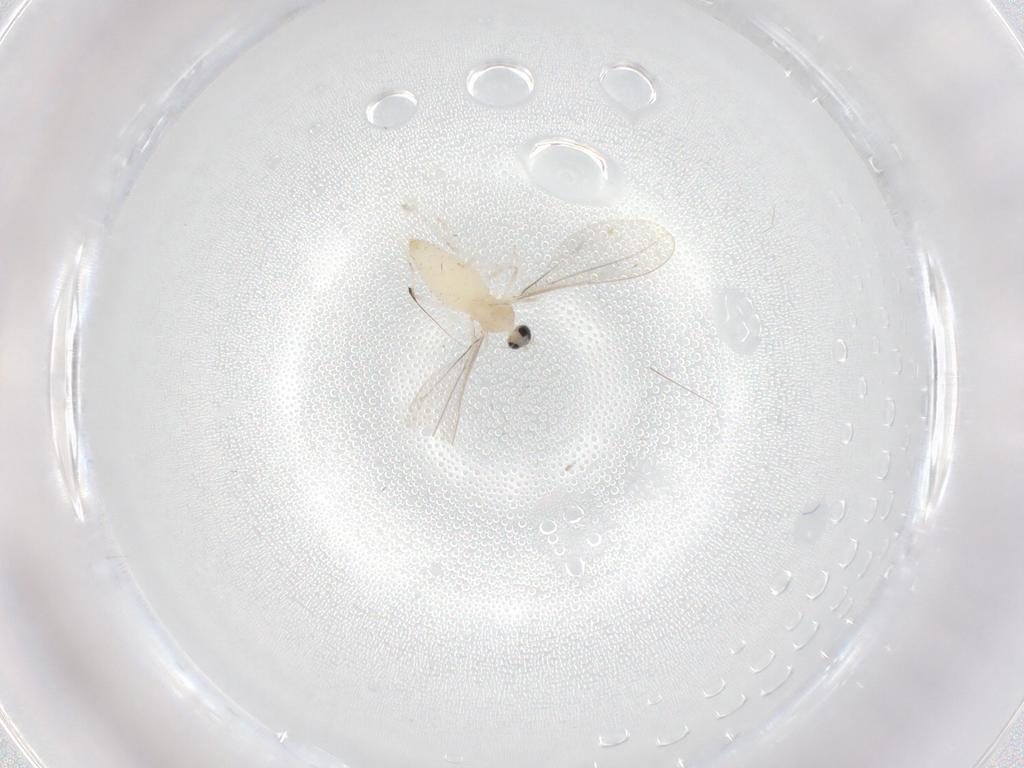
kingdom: Animalia
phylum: Arthropoda
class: Insecta
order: Diptera
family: Cecidomyiidae
